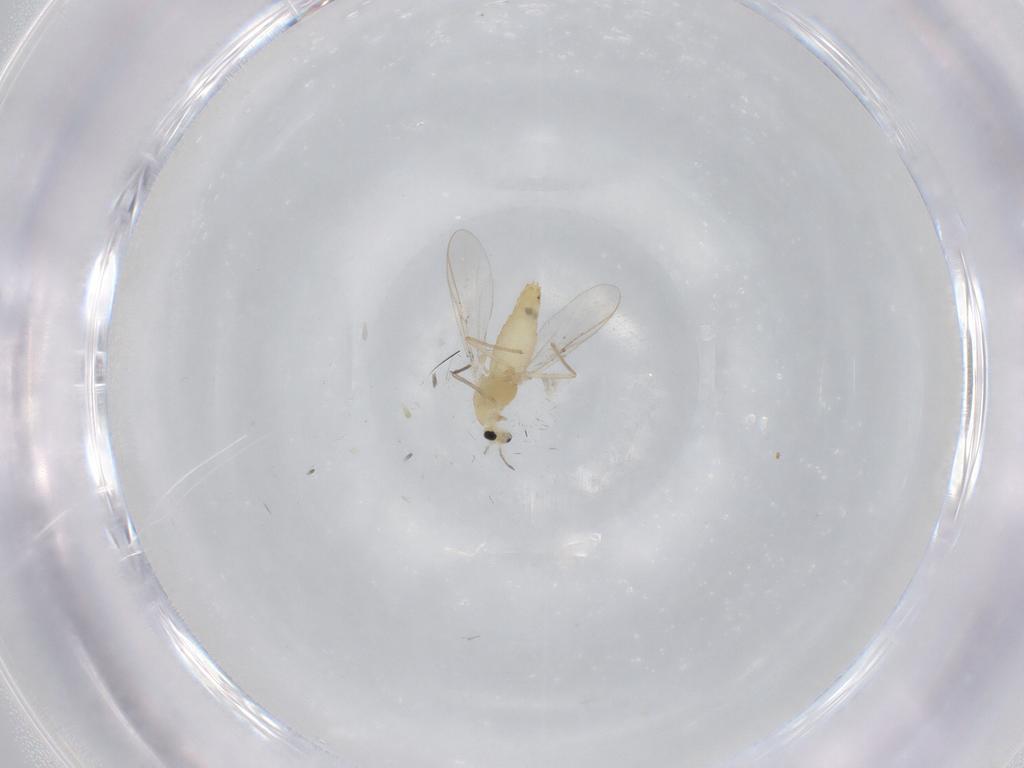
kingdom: Animalia
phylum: Arthropoda
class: Insecta
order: Diptera
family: Chironomidae
